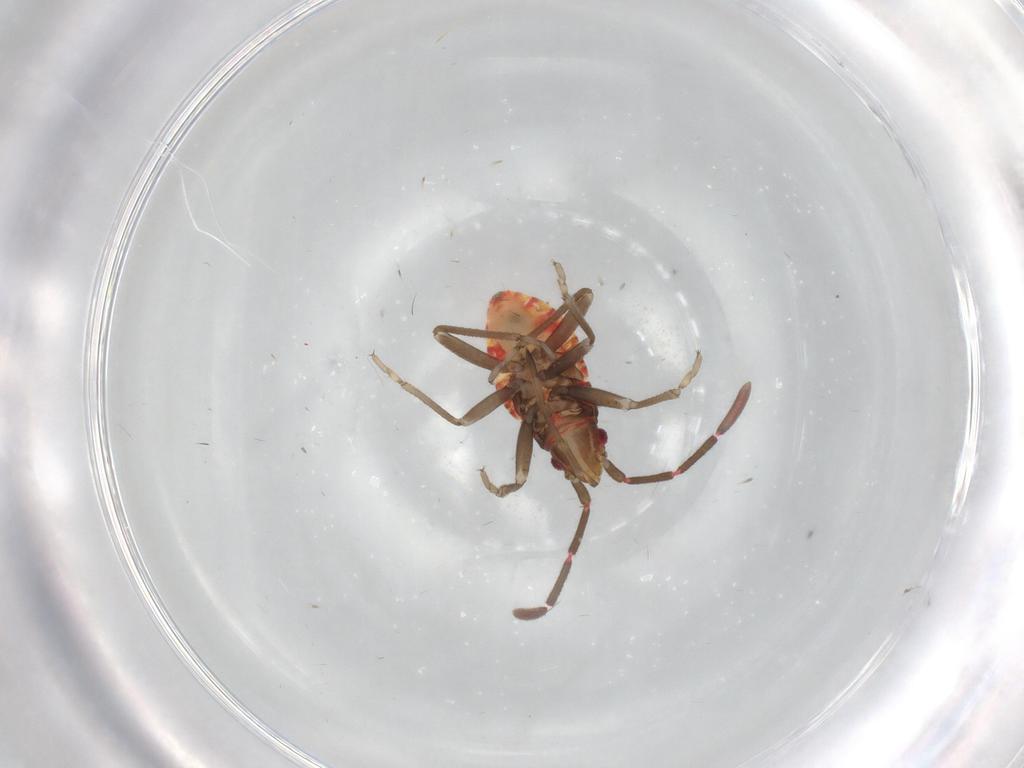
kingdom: Animalia
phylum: Arthropoda
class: Insecta
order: Hemiptera
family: Rhyparochromidae
